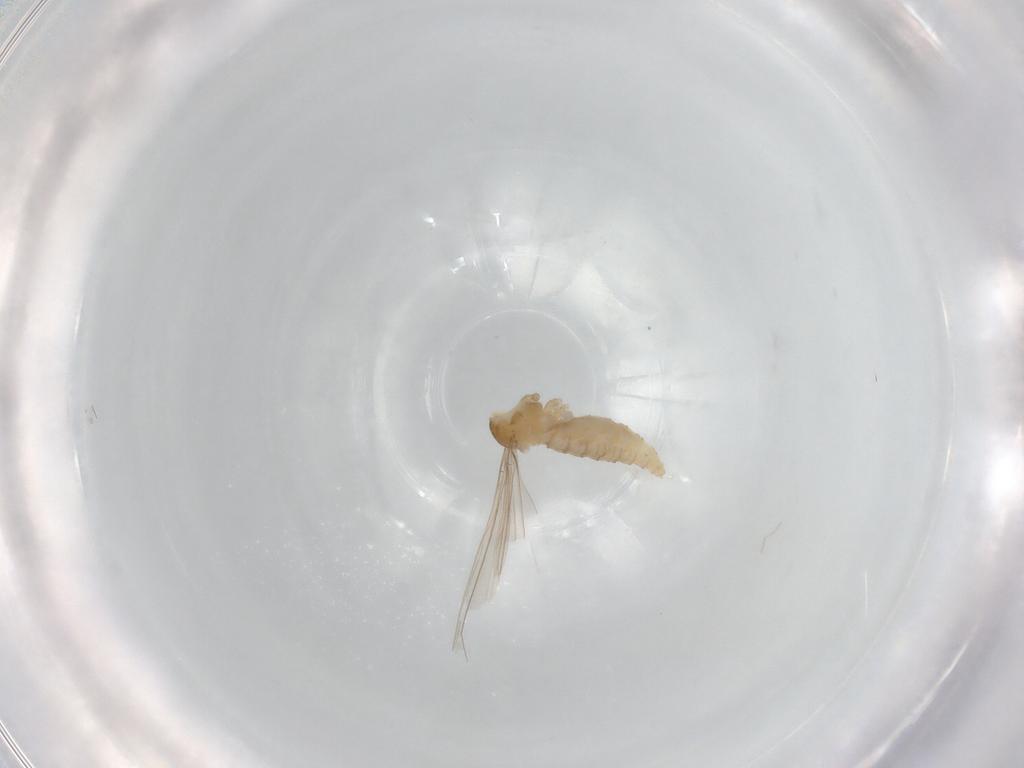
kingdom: Animalia
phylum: Arthropoda
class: Insecta
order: Diptera
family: Lauxaniidae
